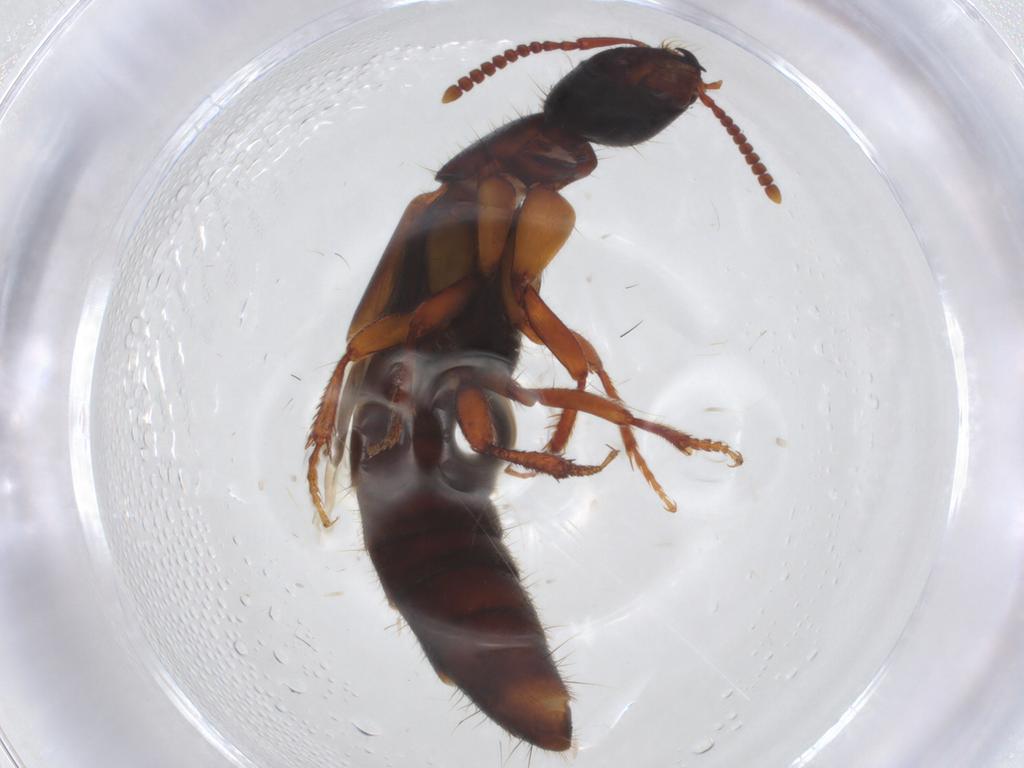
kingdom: Animalia
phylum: Arthropoda
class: Insecta
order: Coleoptera
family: Staphylinidae
